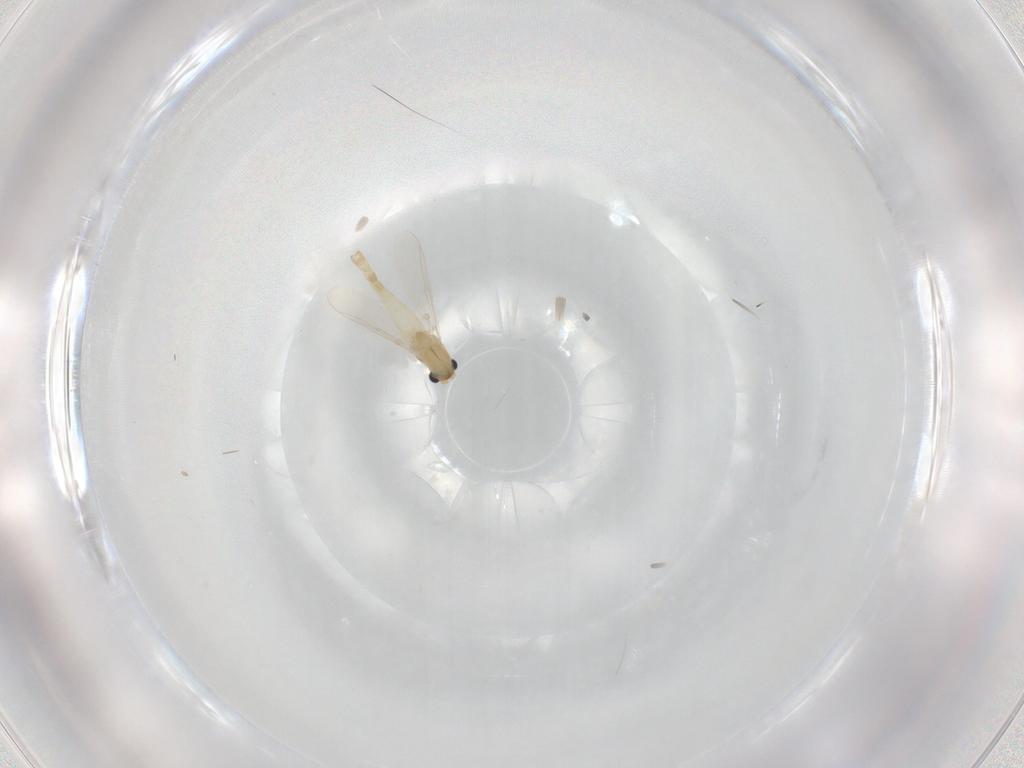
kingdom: Animalia
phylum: Arthropoda
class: Insecta
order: Diptera
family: Chironomidae
